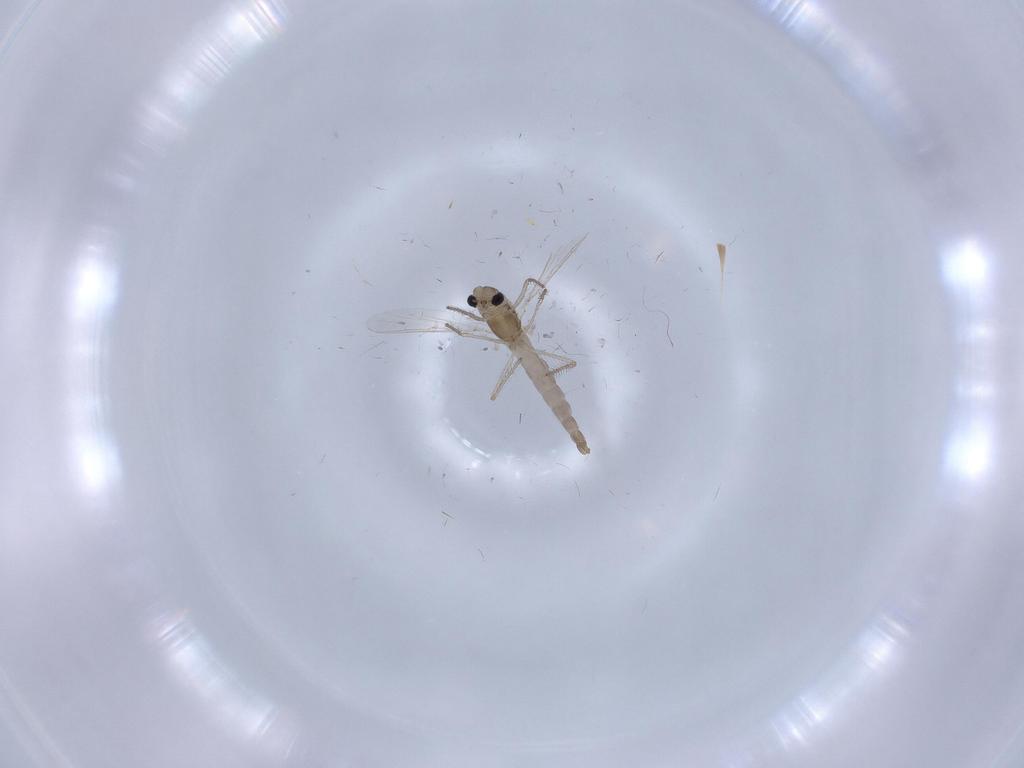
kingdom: Animalia
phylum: Arthropoda
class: Insecta
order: Diptera
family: Chironomidae
